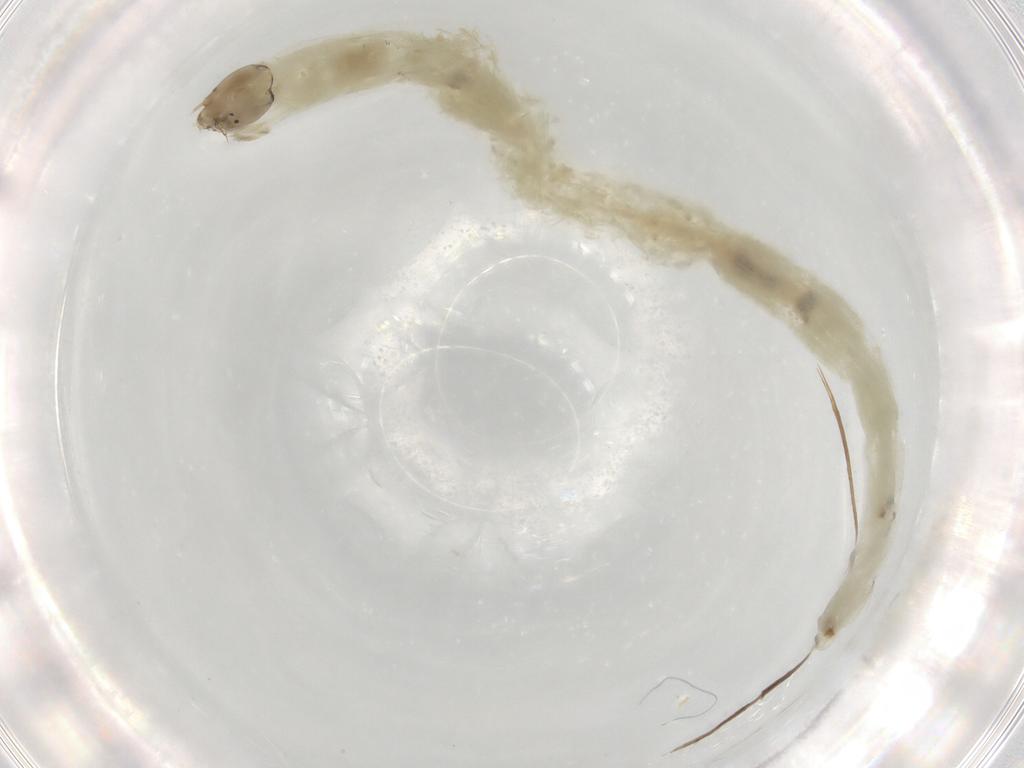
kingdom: Animalia
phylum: Arthropoda
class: Insecta
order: Diptera
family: Chironomidae
